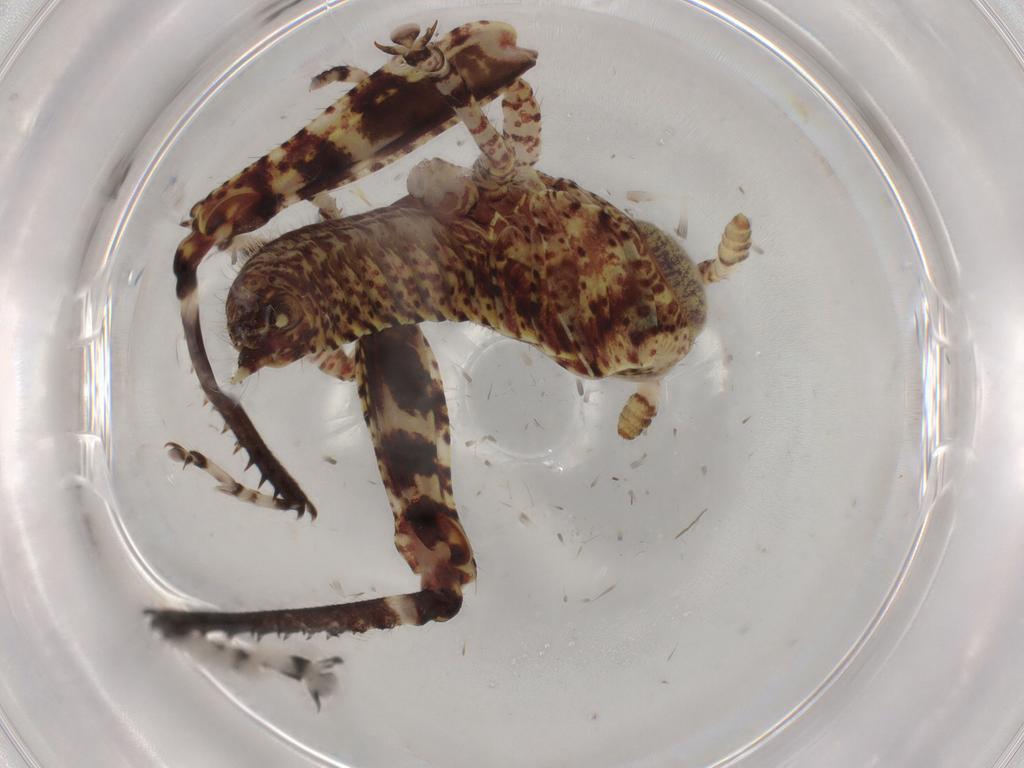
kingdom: Animalia
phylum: Arthropoda
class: Insecta
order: Orthoptera
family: Acrididae
